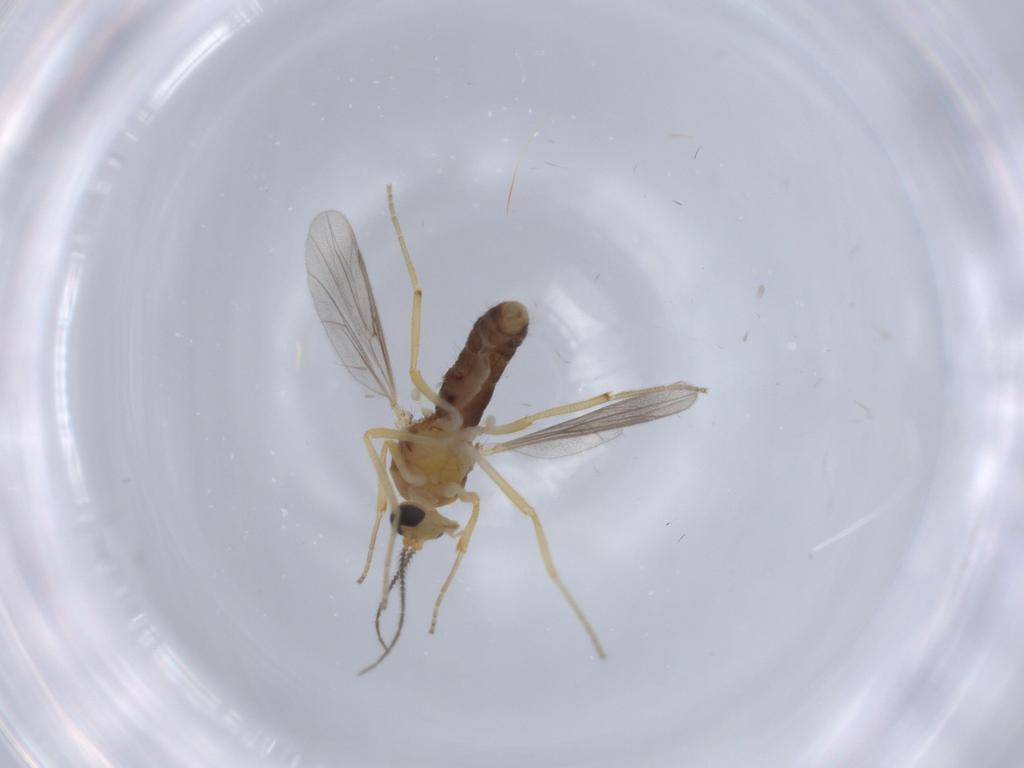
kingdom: Animalia
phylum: Arthropoda
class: Insecta
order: Diptera
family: Ceratopogonidae
